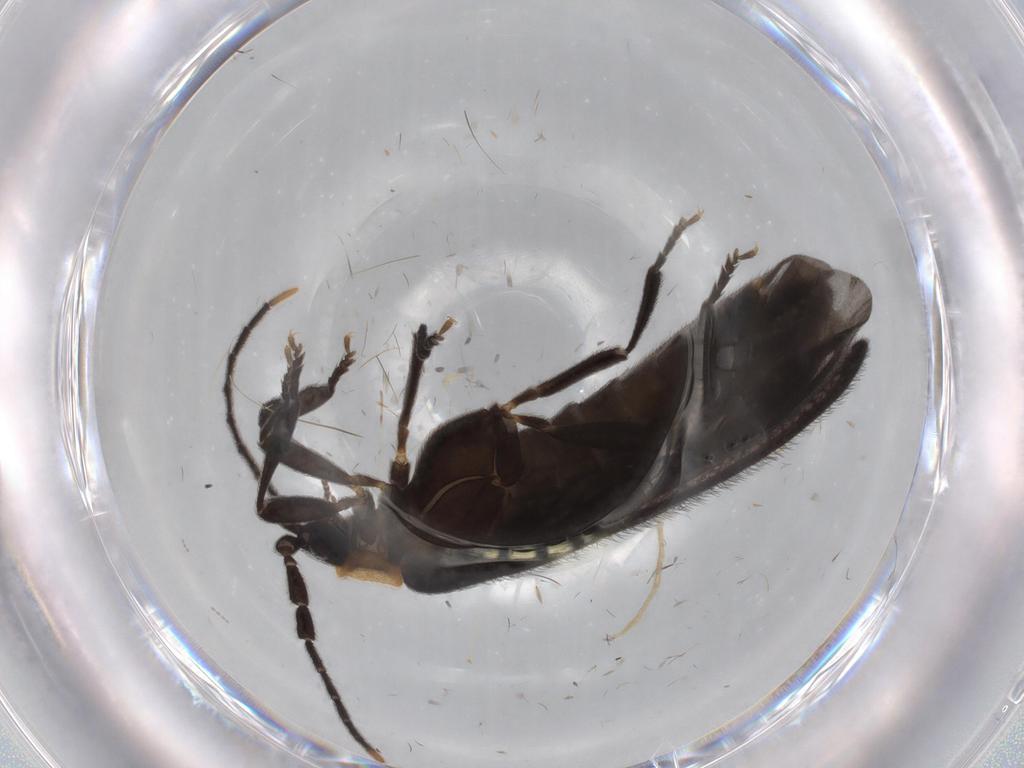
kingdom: Animalia
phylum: Arthropoda
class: Insecta
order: Coleoptera
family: Lycidae
